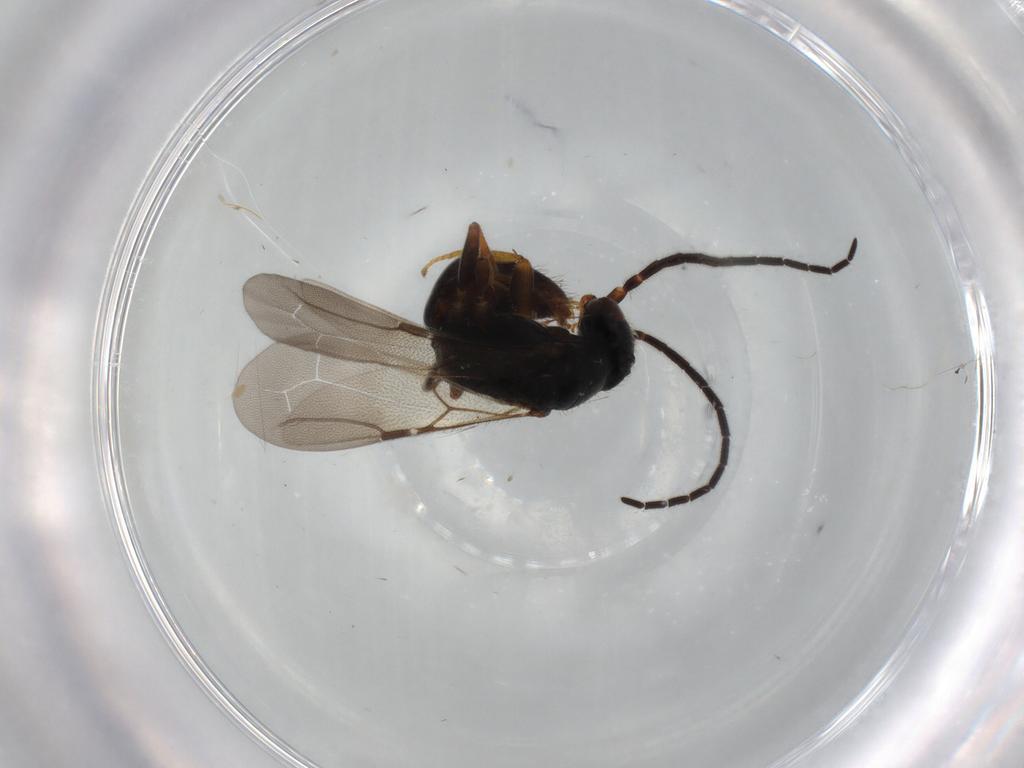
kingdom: Animalia
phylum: Arthropoda
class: Insecta
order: Hymenoptera
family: Bethylidae
